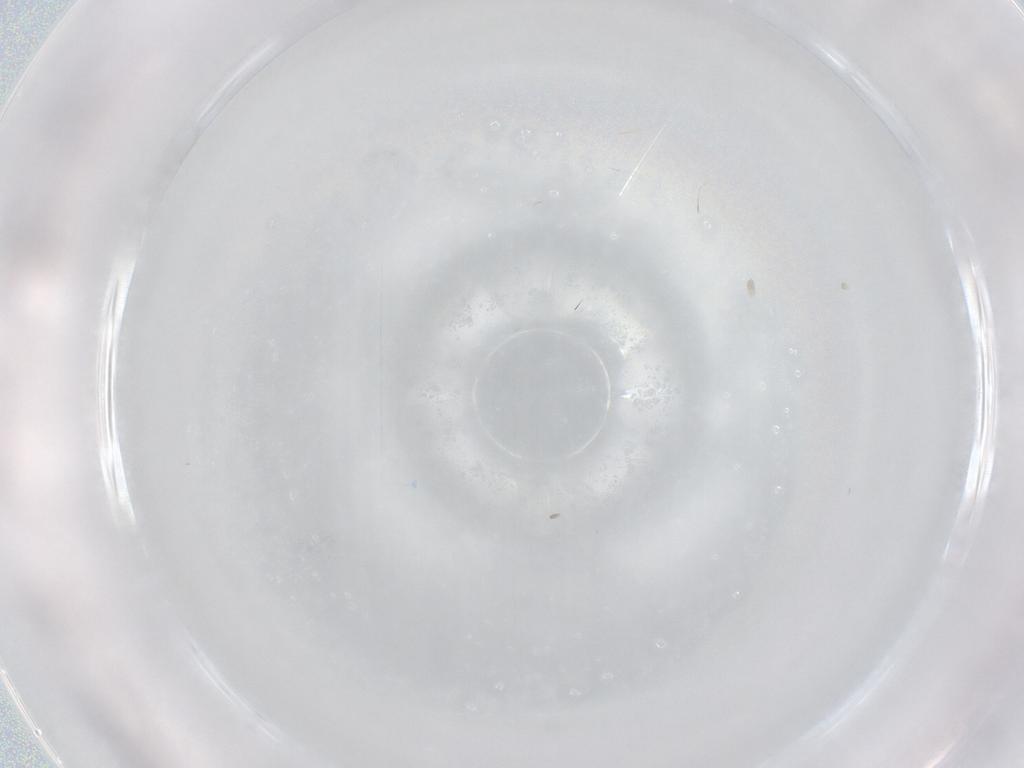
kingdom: Animalia
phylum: Arthropoda
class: Insecta
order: Diptera
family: Cecidomyiidae
